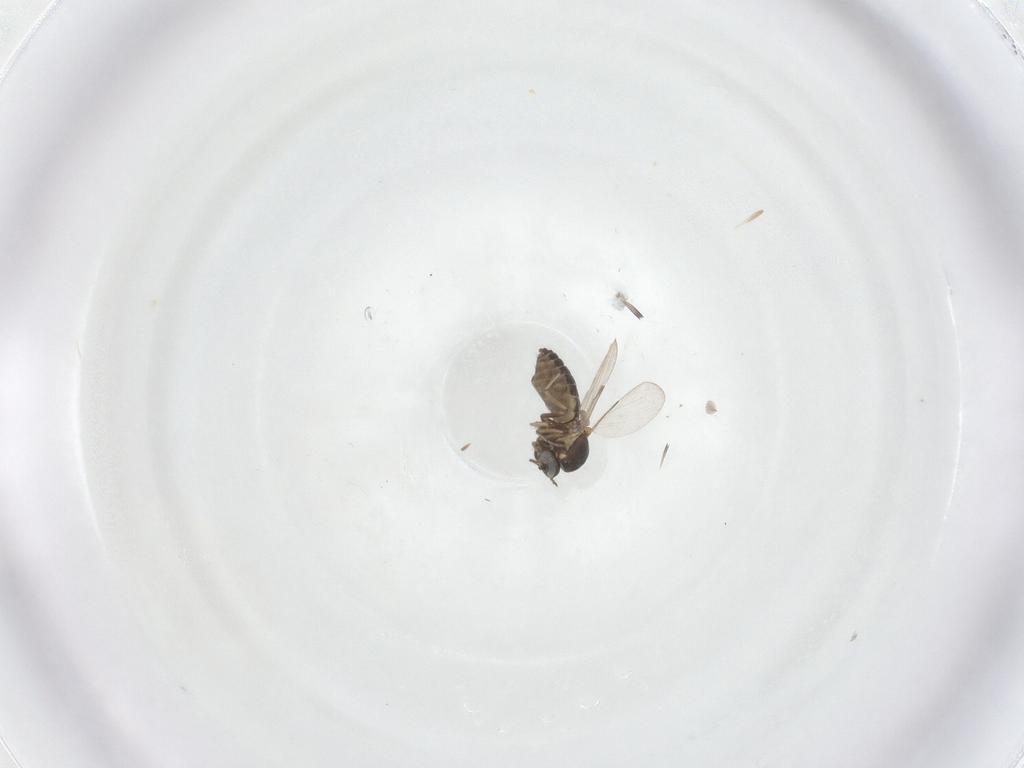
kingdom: Animalia
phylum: Arthropoda
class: Insecta
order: Diptera
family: Ceratopogonidae
